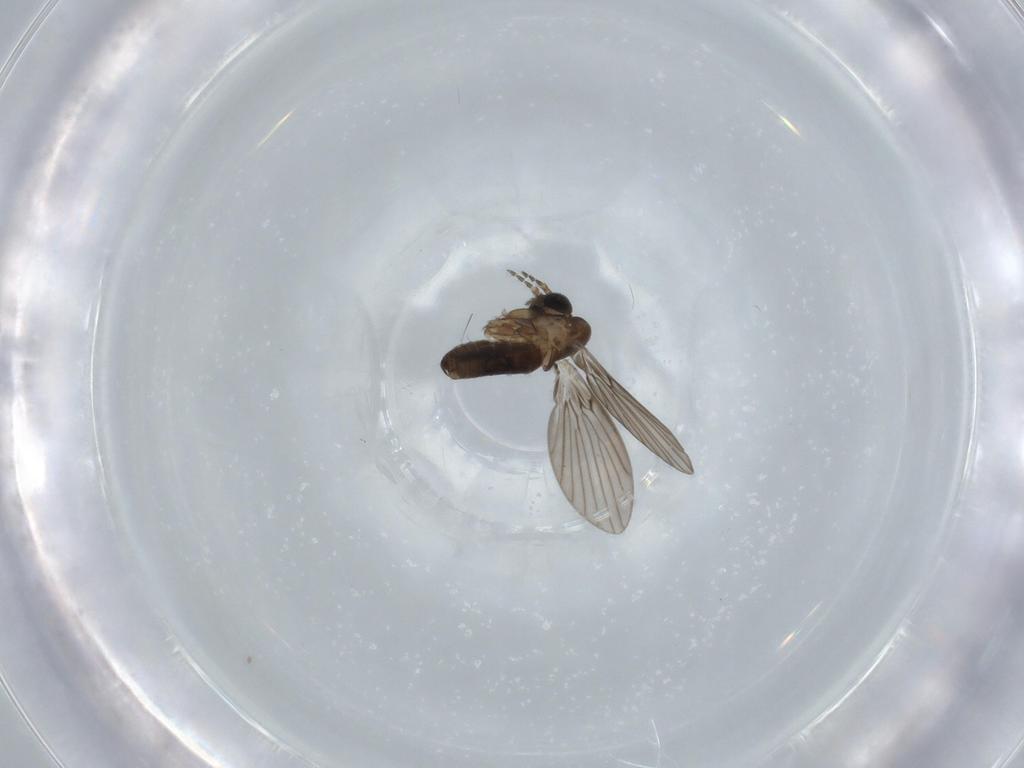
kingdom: Animalia
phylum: Arthropoda
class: Insecta
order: Diptera
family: Psychodidae
